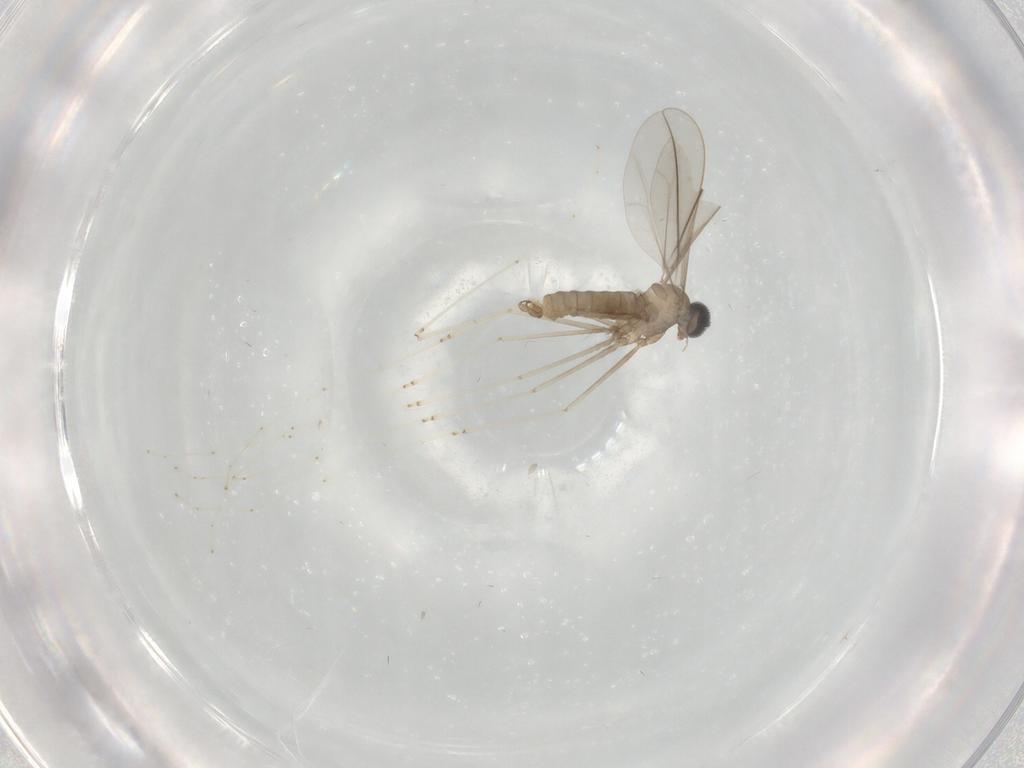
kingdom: Animalia
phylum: Arthropoda
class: Insecta
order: Diptera
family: Cecidomyiidae
